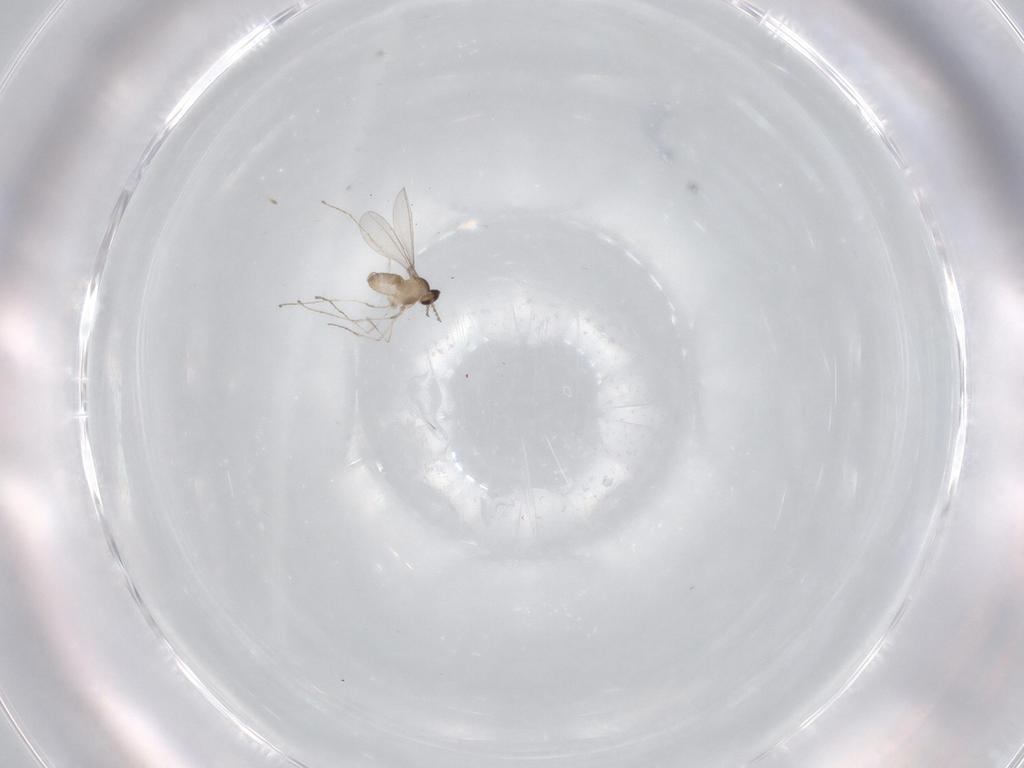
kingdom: Animalia
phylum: Arthropoda
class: Insecta
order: Diptera
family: Cecidomyiidae
